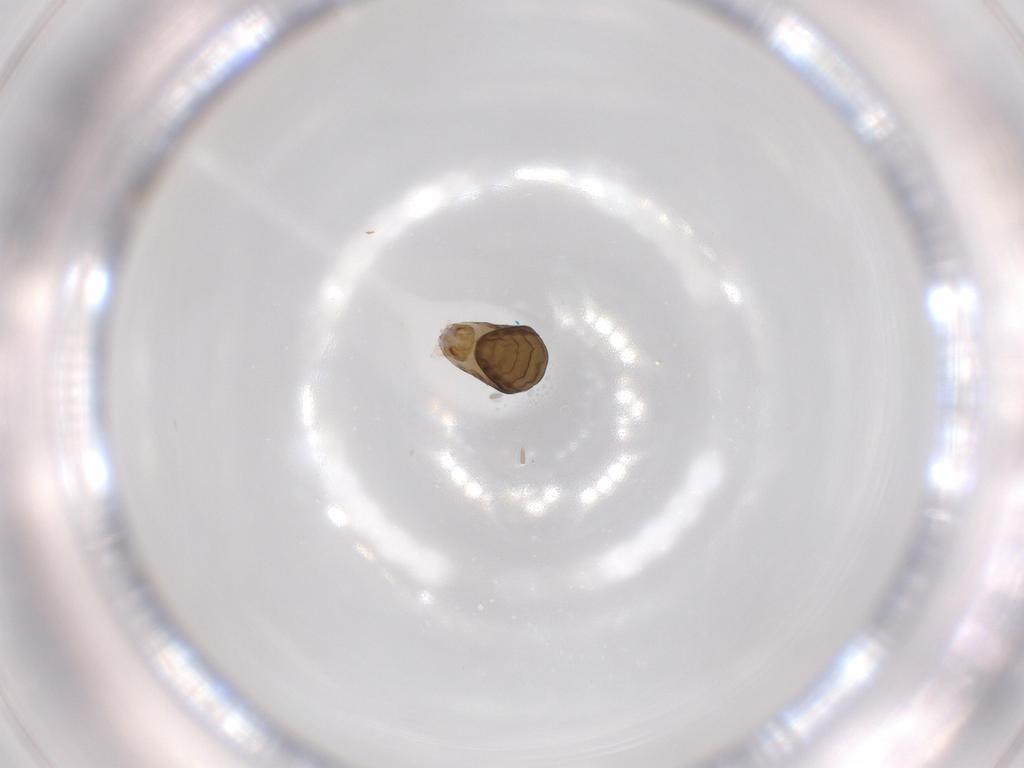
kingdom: Animalia
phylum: Arthropoda
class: Insecta
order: Hymenoptera
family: Dryinidae
